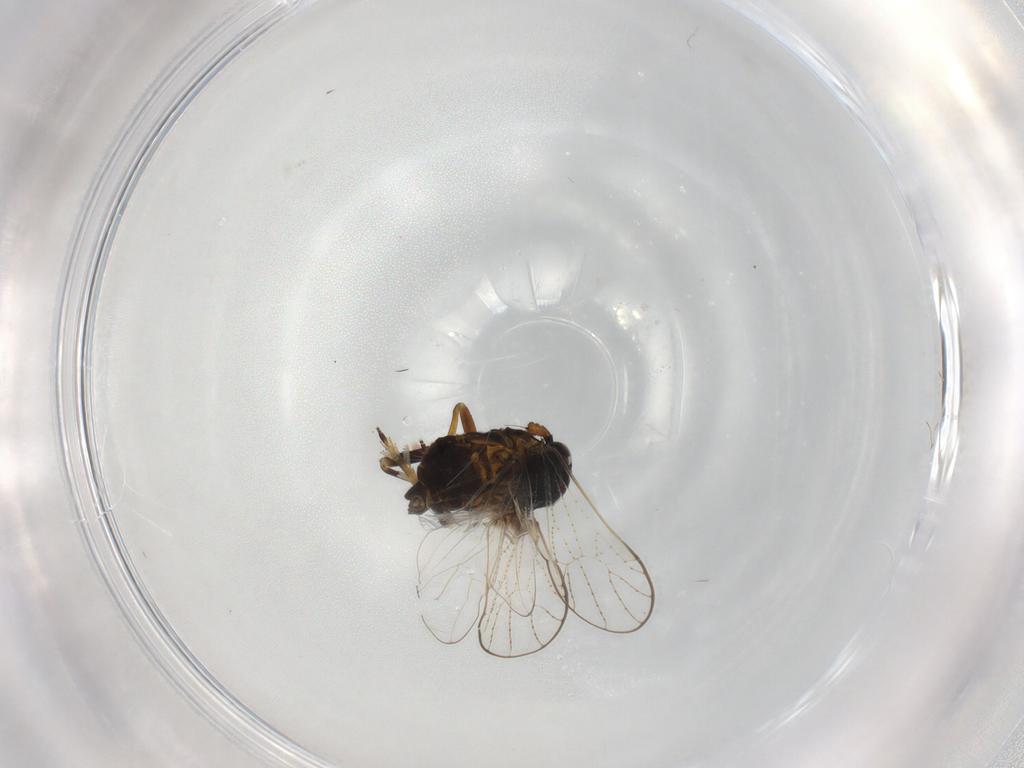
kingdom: Animalia
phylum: Arthropoda
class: Insecta
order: Hemiptera
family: Delphacidae
